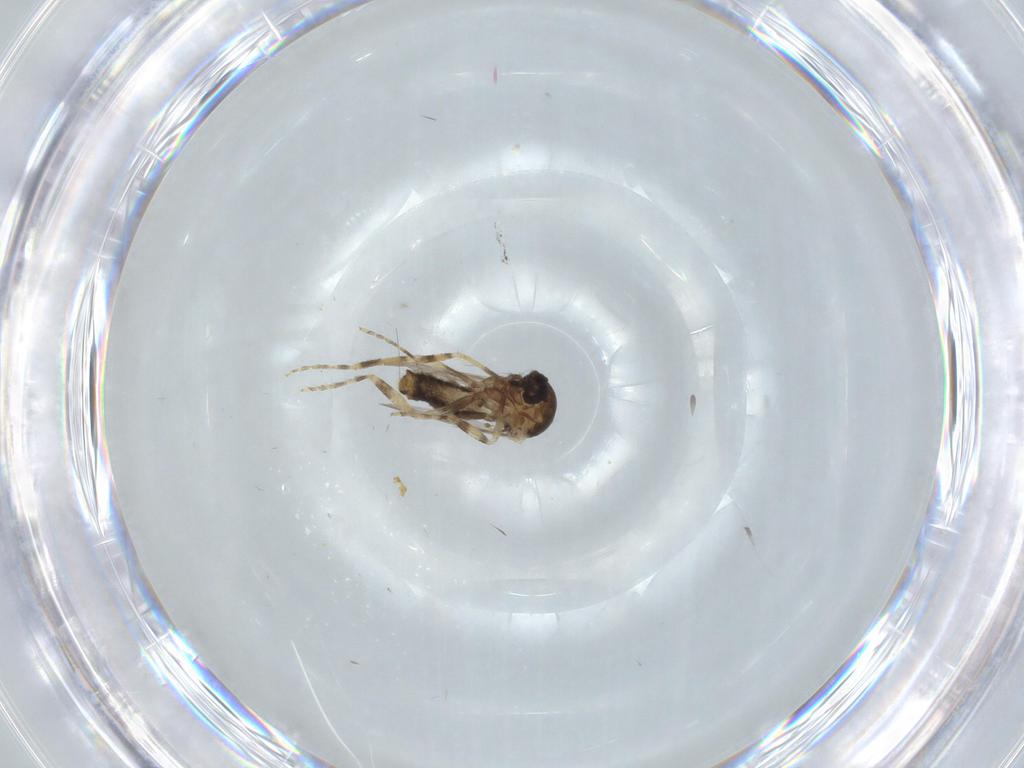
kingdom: Animalia
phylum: Arthropoda
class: Insecta
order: Diptera
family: Ceratopogonidae
